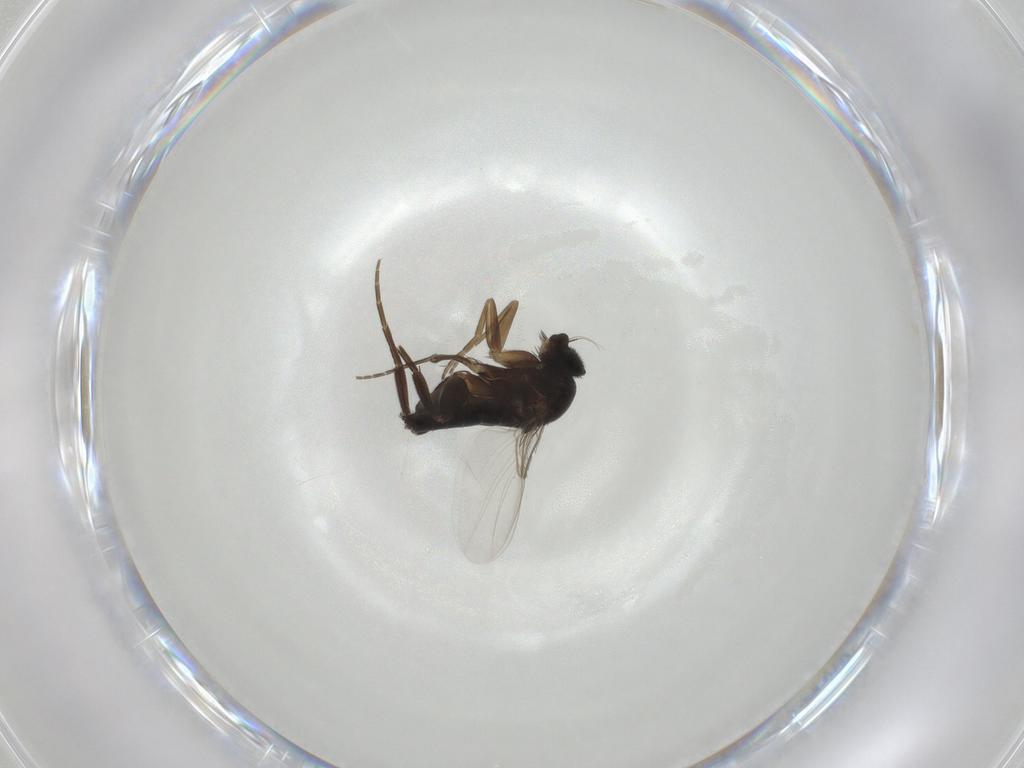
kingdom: Animalia
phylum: Arthropoda
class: Insecta
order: Diptera
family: Phoridae
